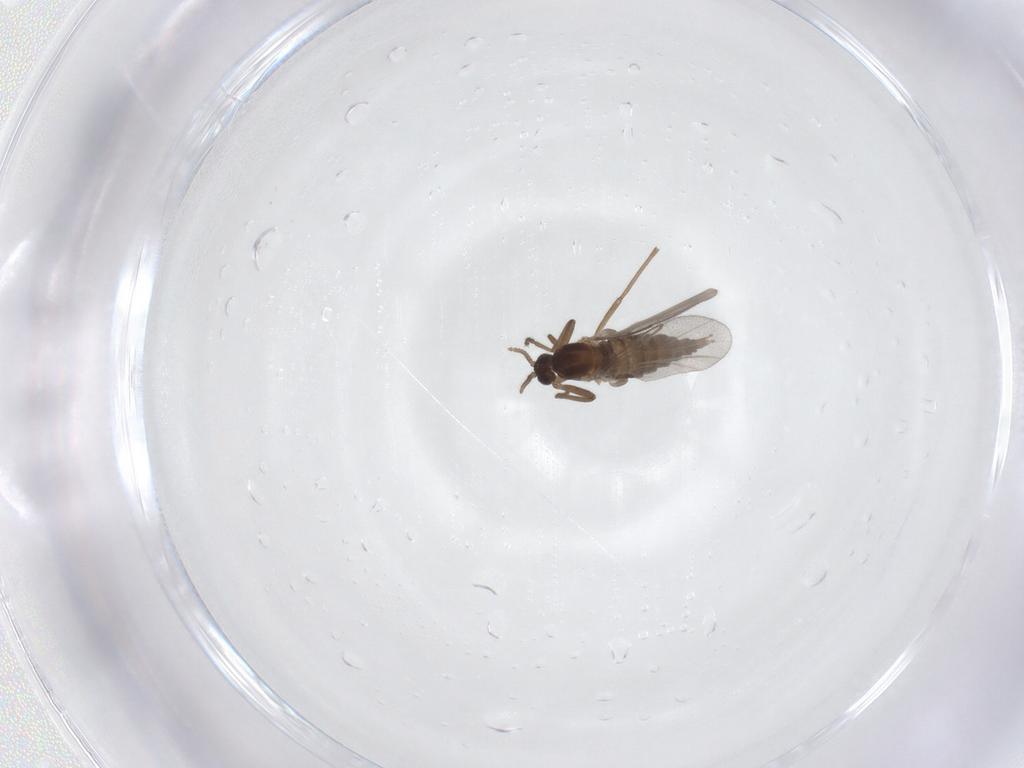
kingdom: Animalia
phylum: Arthropoda
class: Insecta
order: Diptera
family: Cecidomyiidae
